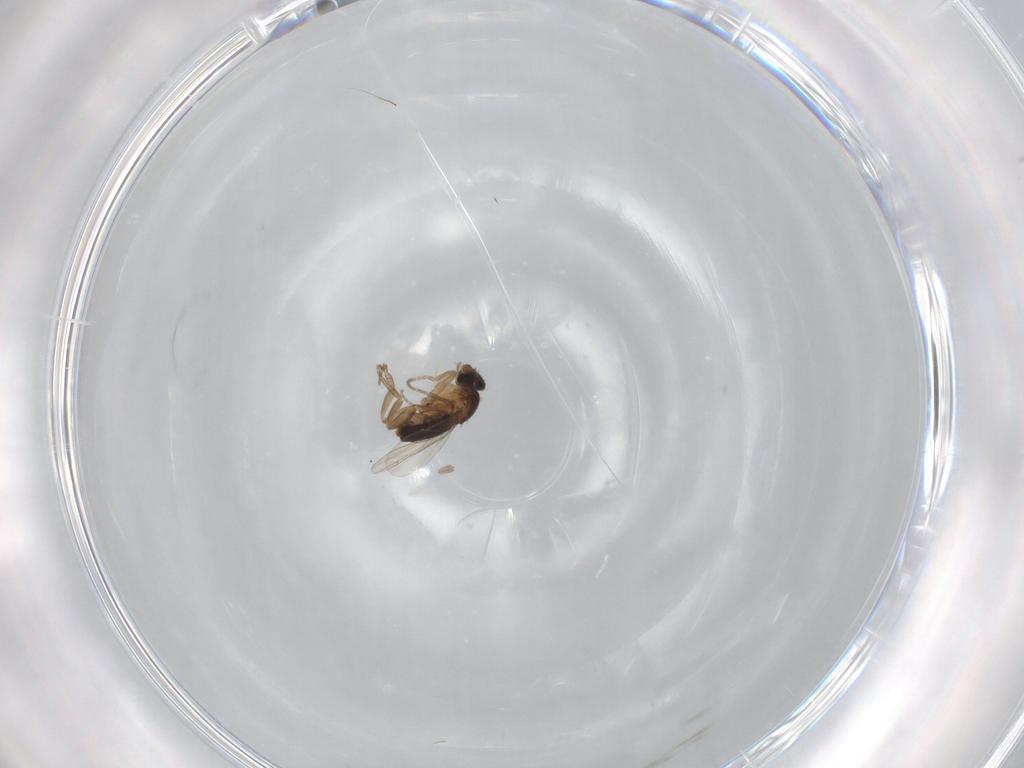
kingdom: Animalia
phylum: Arthropoda
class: Insecta
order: Diptera
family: Phoridae
